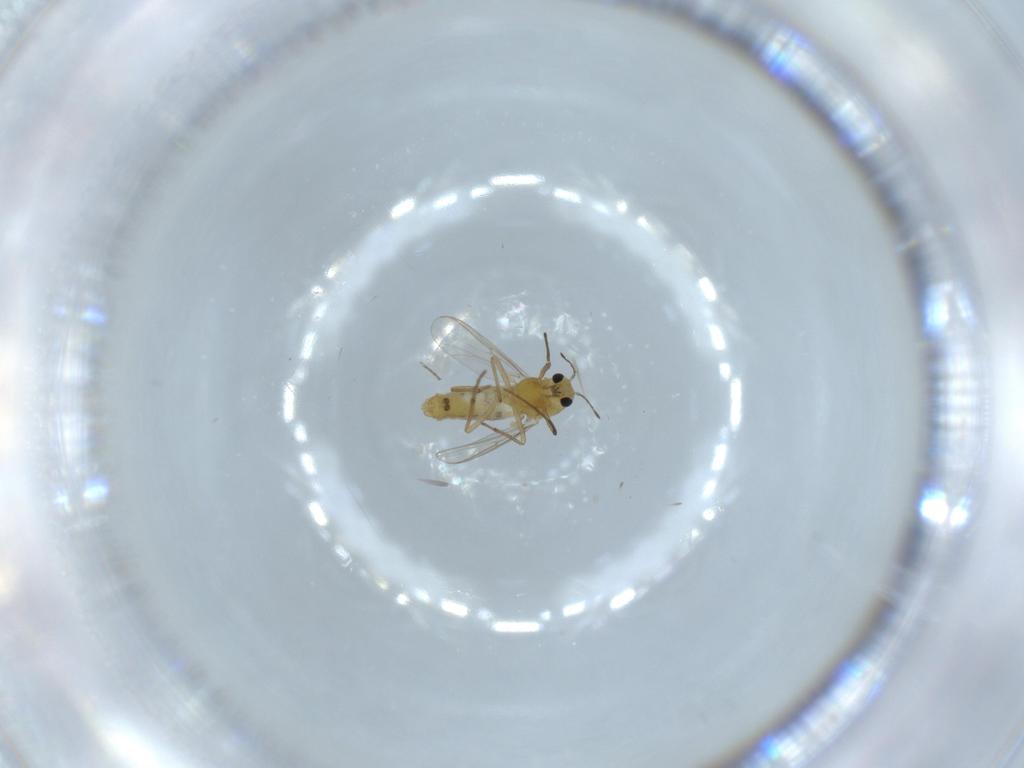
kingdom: Animalia
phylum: Arthropoda
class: Insecta
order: Diptera
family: Chironomidae
